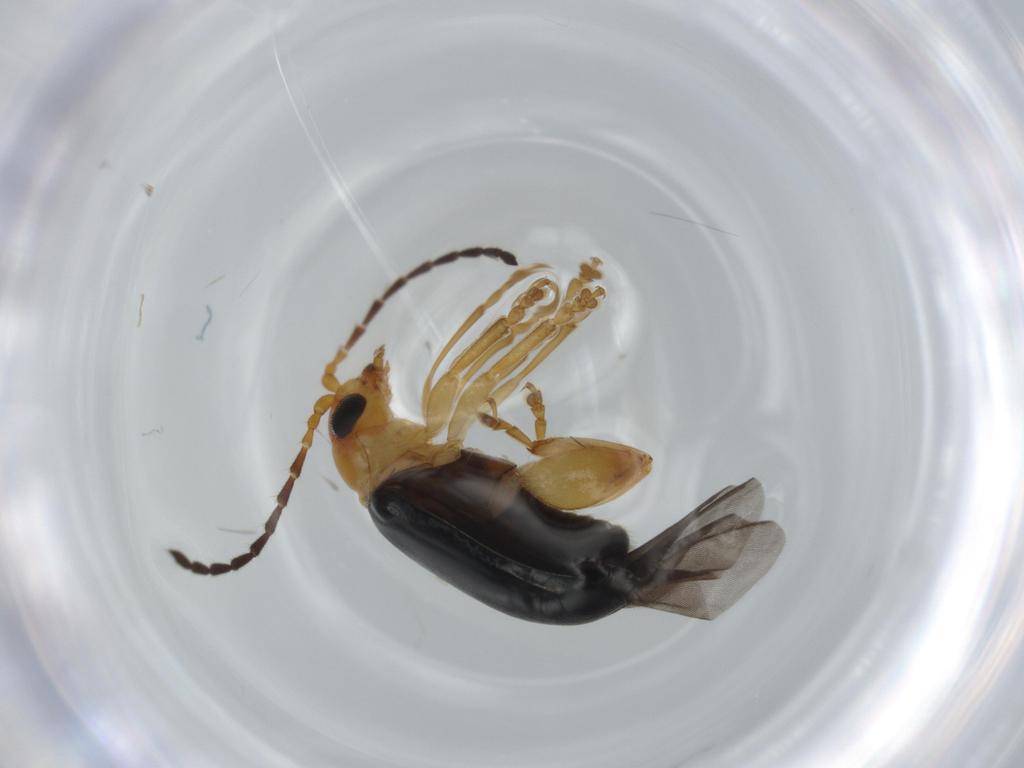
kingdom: Animalia
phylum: Arthropoda
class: Insecta
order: Coleoptera
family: Chrysomelidae
